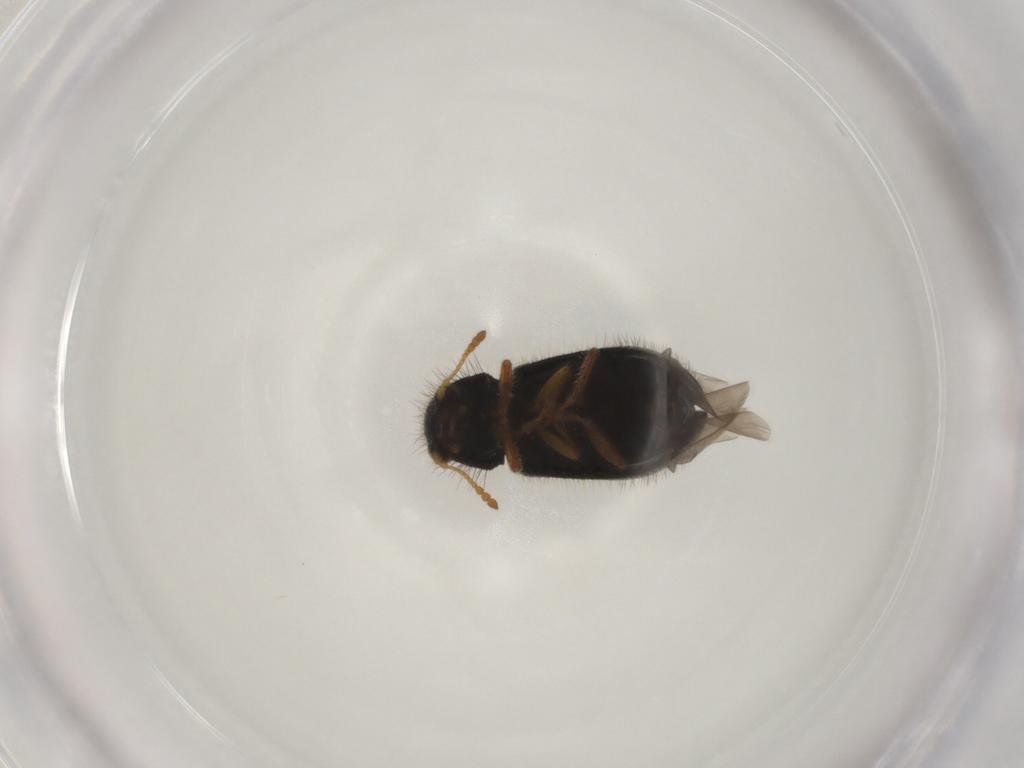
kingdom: Animalia
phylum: Arthropoda
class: Insecta
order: Coleoptera
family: Cleridae
